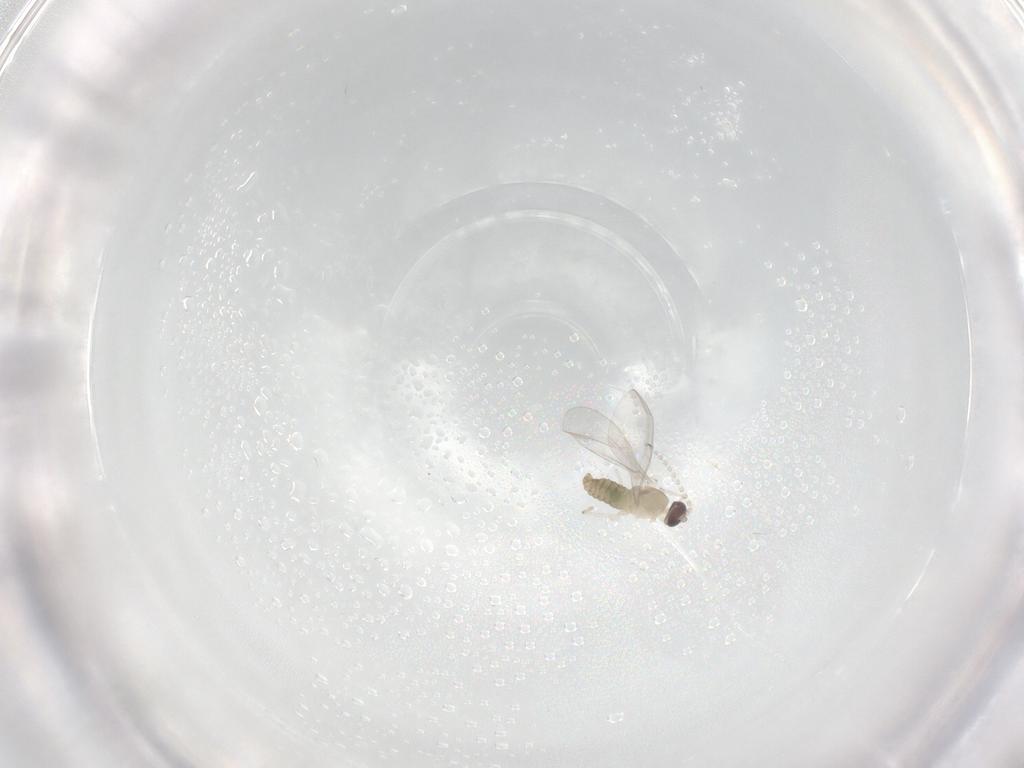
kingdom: Animalia
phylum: Arthropoda
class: Insecta
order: Diptera
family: Cecidomyiidae
